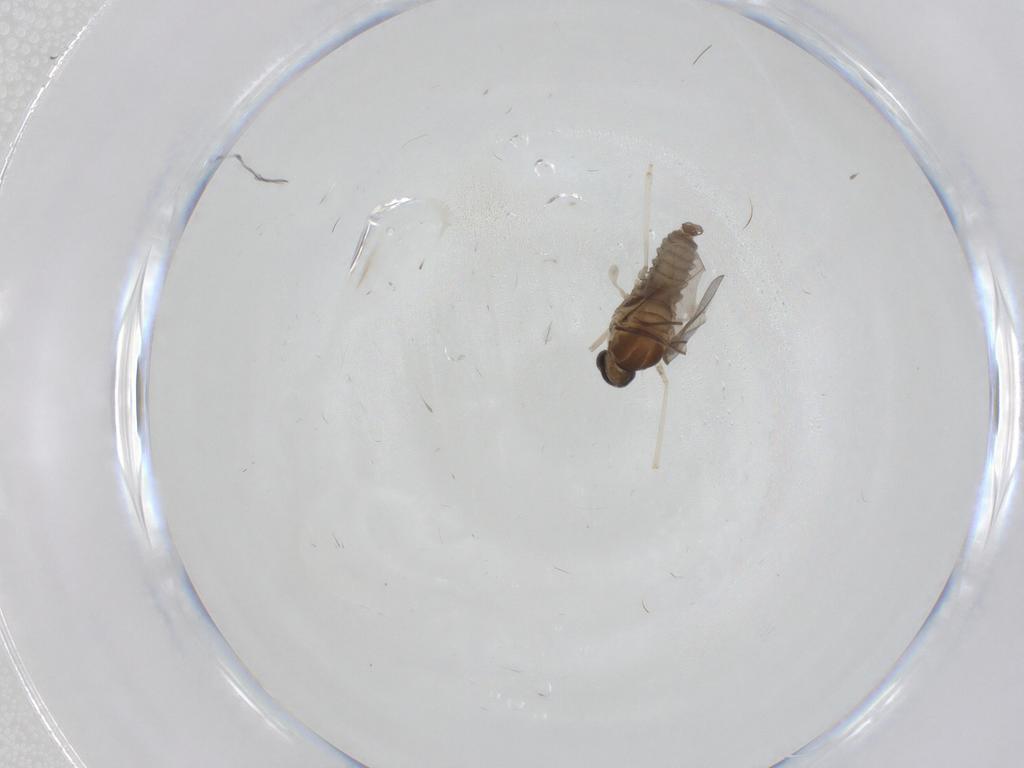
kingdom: Animalia
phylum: Arthropoda
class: Insecta
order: Diptera
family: Cecidomyiidae
